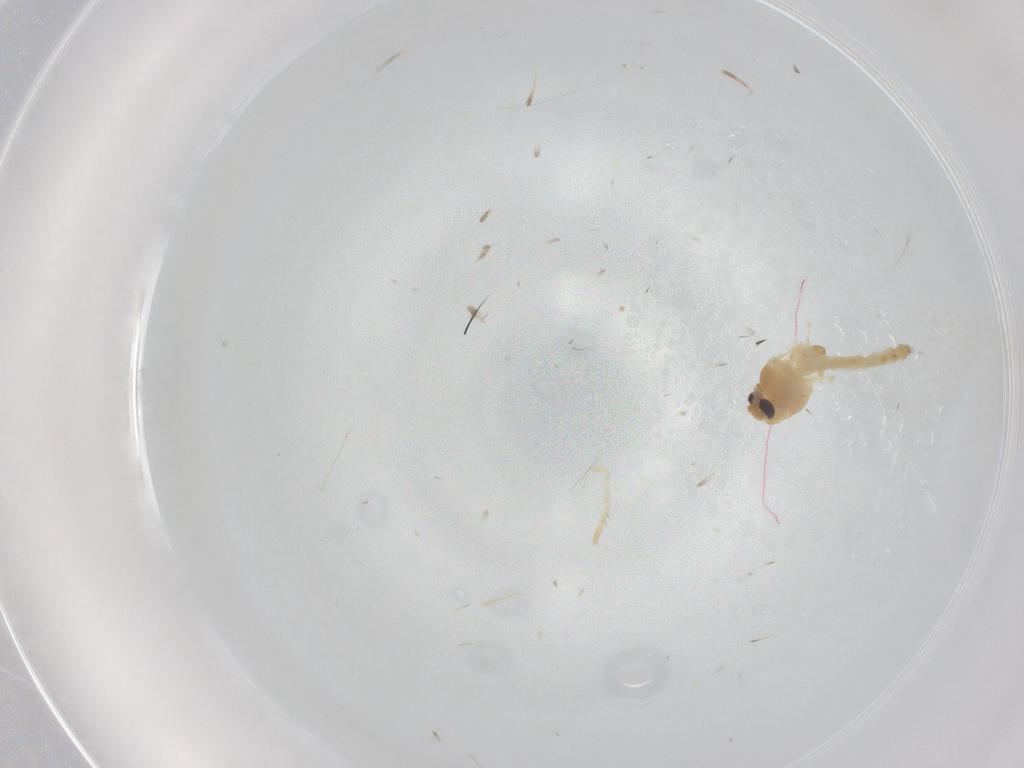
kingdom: Animalia
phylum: Arthropoda
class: Insecta
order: Diptera
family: Chironomidae
